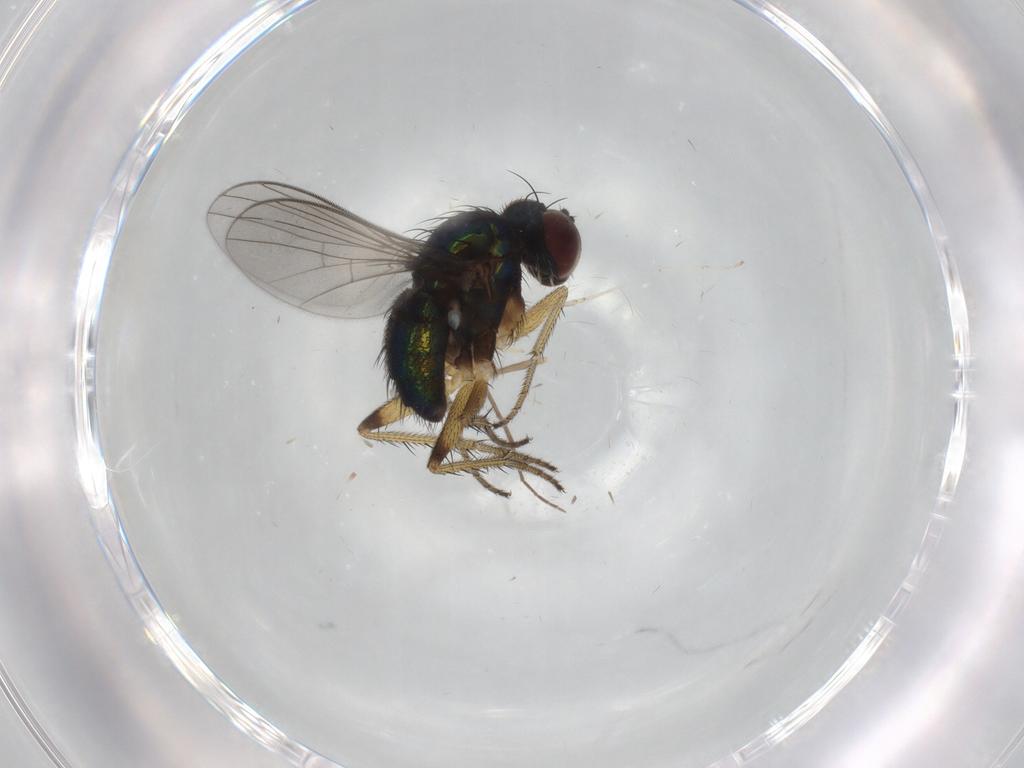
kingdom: Animalia
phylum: Arthropoda
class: Insecta
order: Diptera
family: Dolichopodidae
